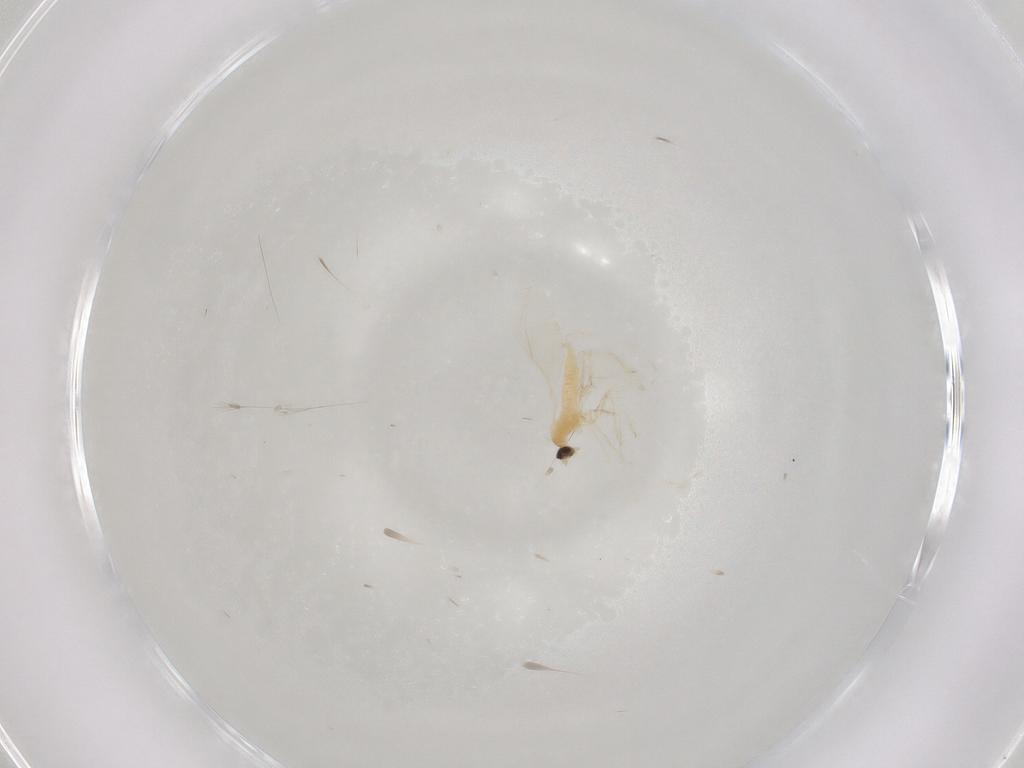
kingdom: Animalia
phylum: Arthropoda
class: Insecta
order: Diptera
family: Cecidomyiidae
